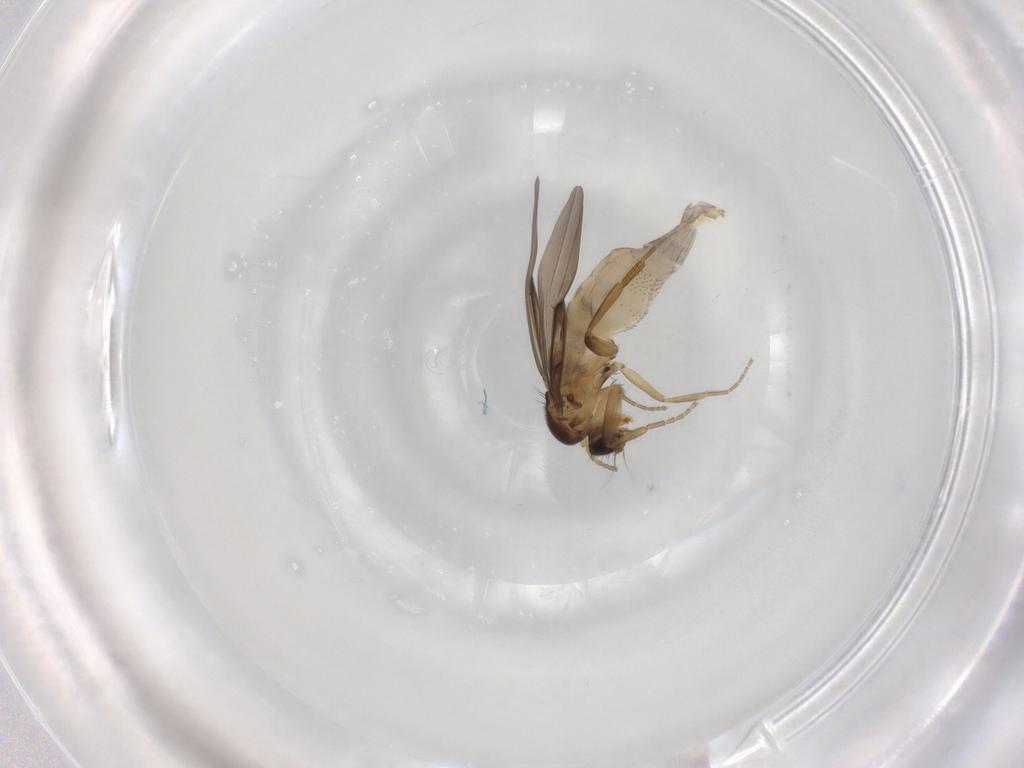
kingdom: Animalia
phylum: Arthropoda
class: Insecta
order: Diptera
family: Phoridae
